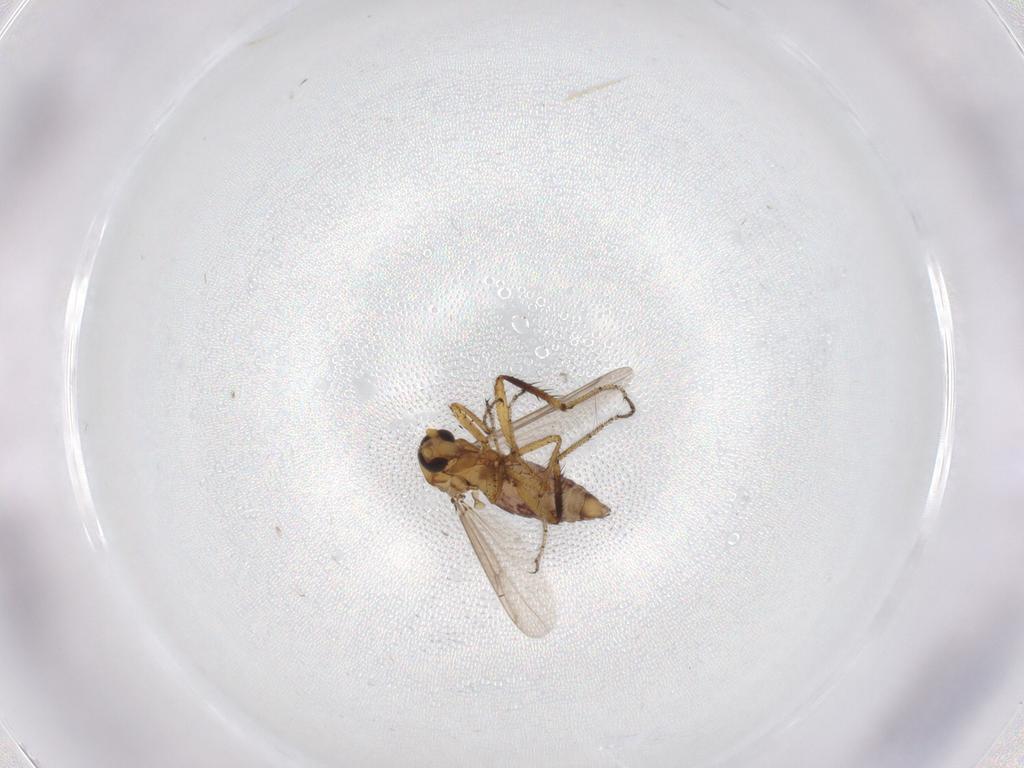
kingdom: Animalia
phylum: Arthropoda
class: Insecta
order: Diptera
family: Ceratopogonidae
